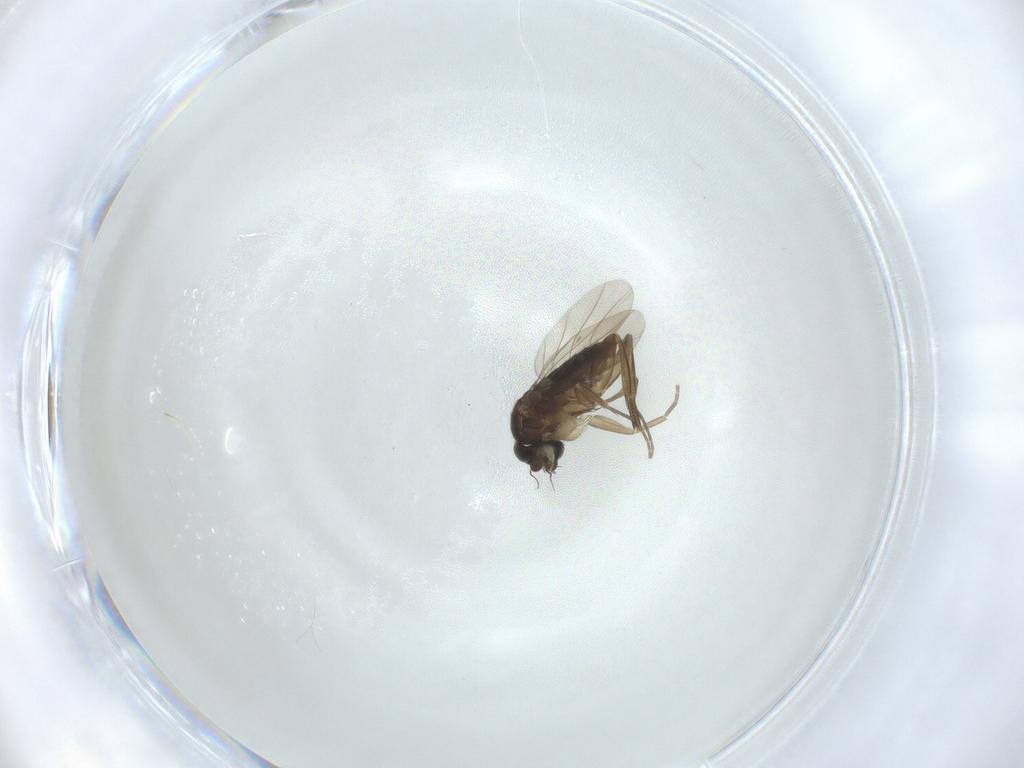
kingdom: Animalia
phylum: Arthropoda
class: Insecta
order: Diptera
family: Phoridae
